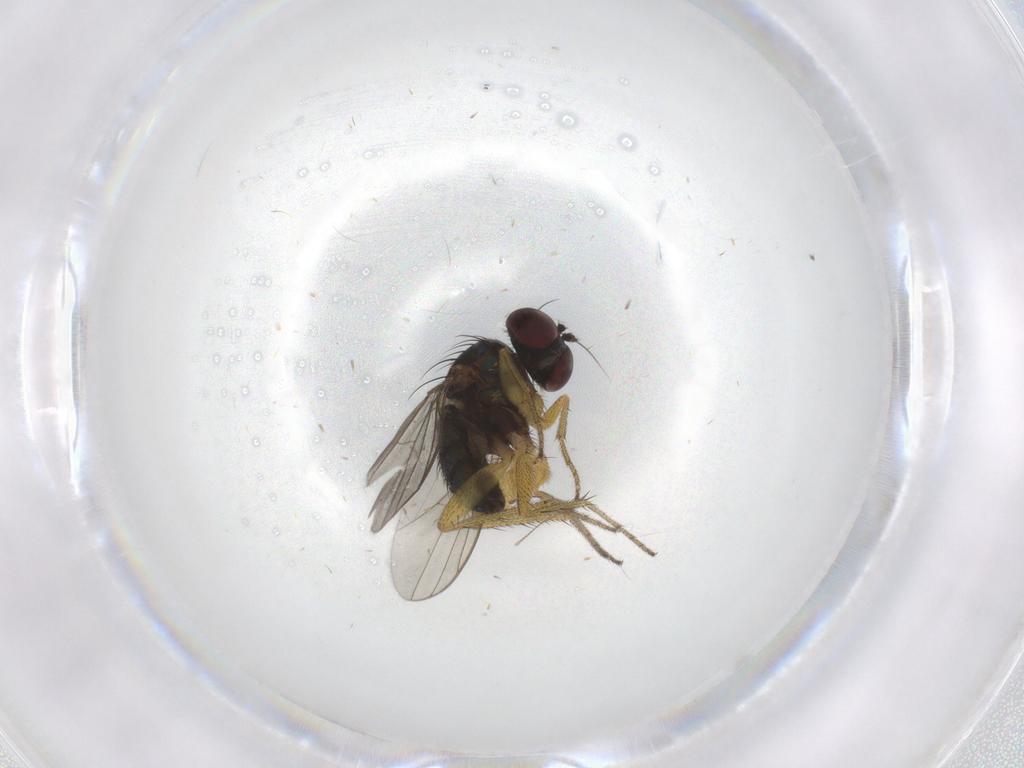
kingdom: Animalia
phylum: Arthropoda
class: Insecta
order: Diptera
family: Dolichopodidae
